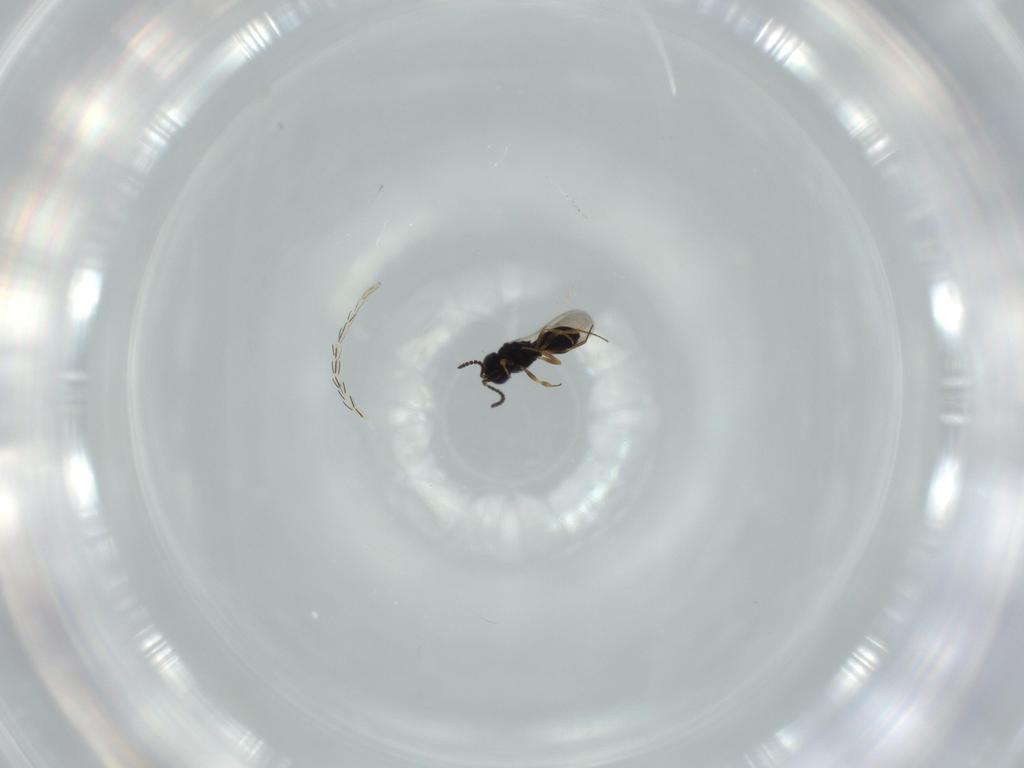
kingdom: Animalia
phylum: Arthropoda
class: Insecta
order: Hymenoptera
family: Scelionidae
